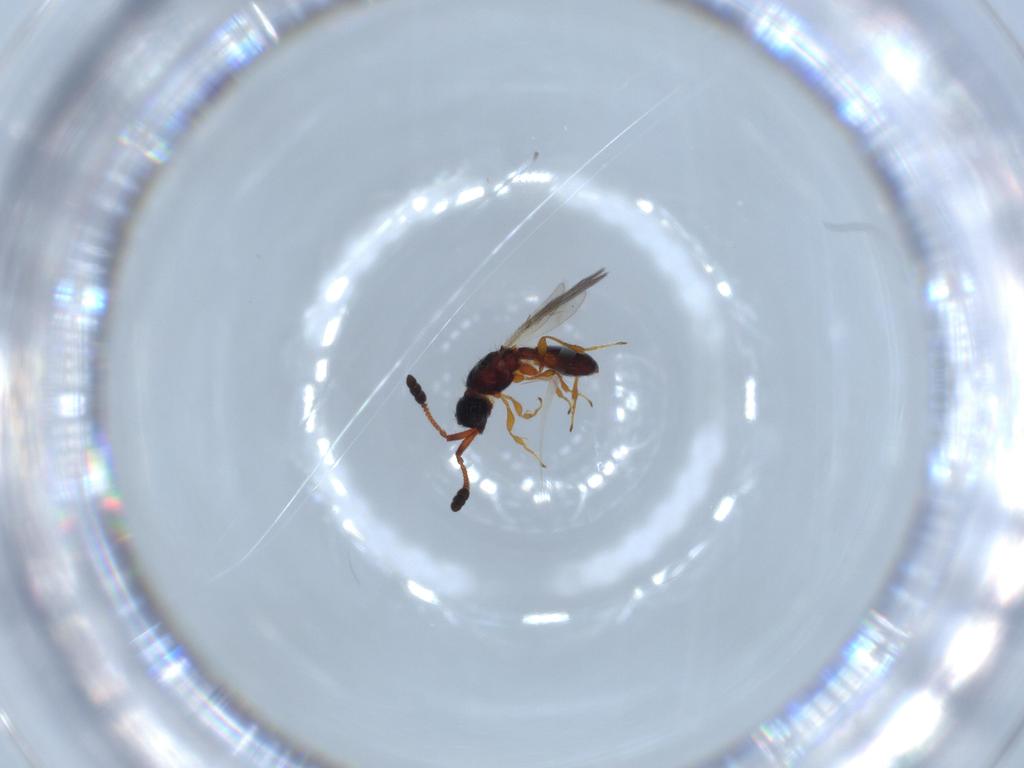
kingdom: Animalia
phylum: Arthropoda
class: Insecta
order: Hymenoptera
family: Diapriidae
